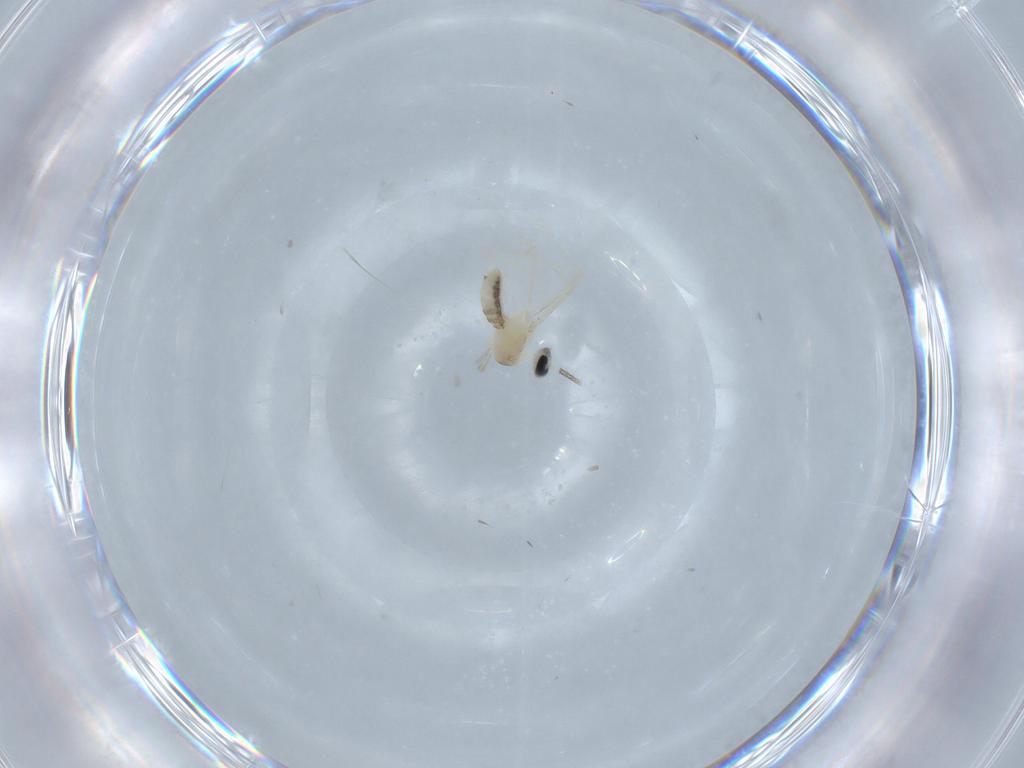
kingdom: Animalia
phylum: Arthropoda
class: Insecta
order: Diptera
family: Cecidomyiidae
